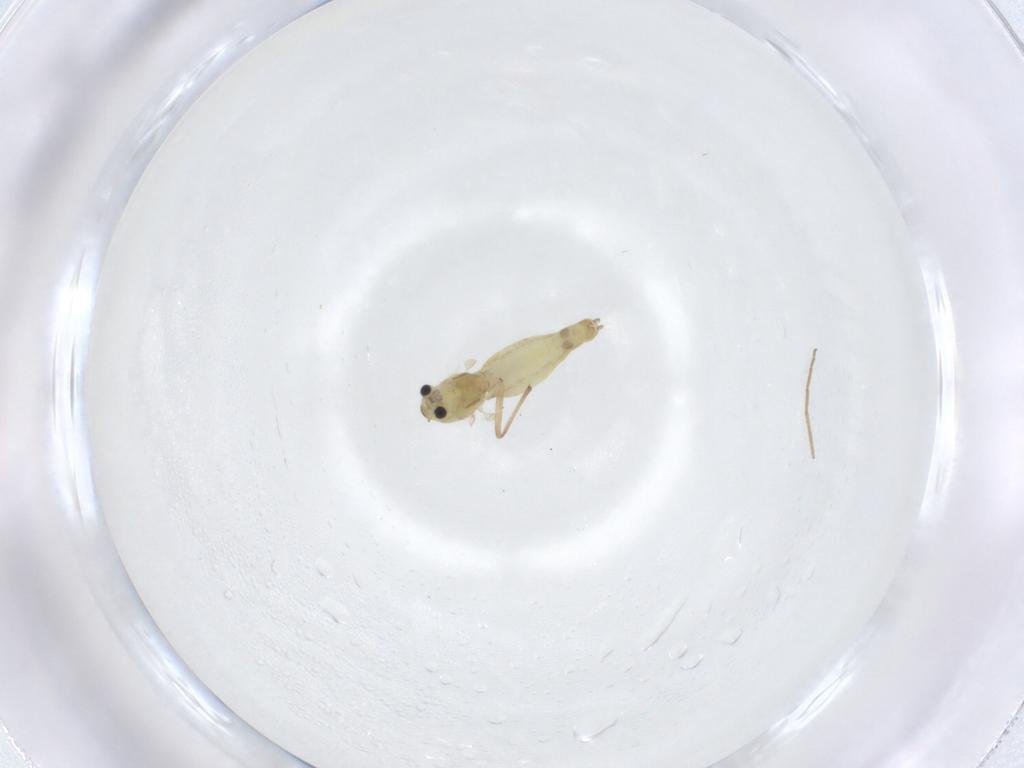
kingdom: Animalia
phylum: Arthropoda
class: Insecta
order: Diptera
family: Chironomidae
